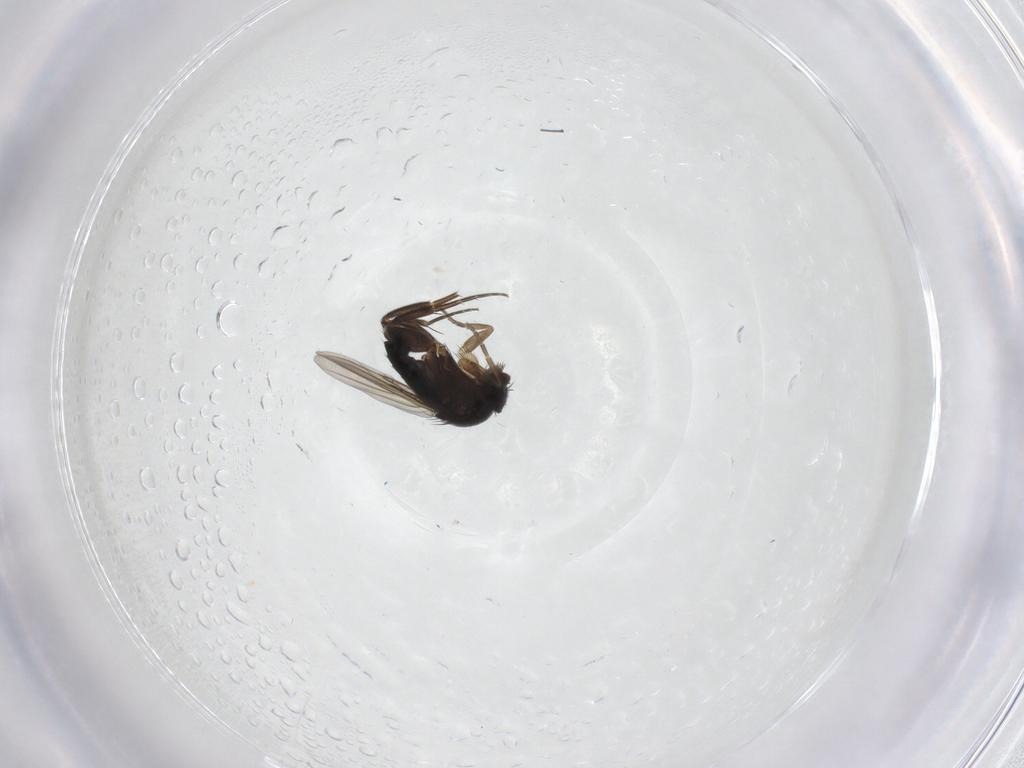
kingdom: Animalia
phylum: Arthropoda
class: Insecta
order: Diptera
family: Phoridae
